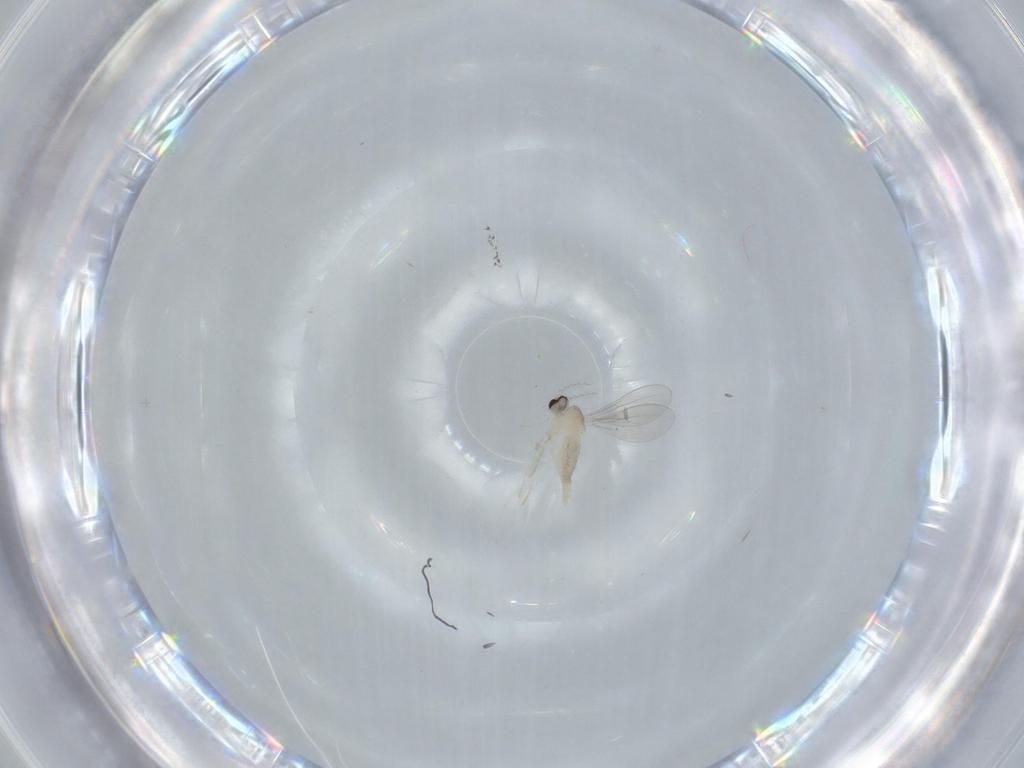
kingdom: Animalia
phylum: Arthropoda
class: Insecta
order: Diptera
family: Cecidomyiidae
